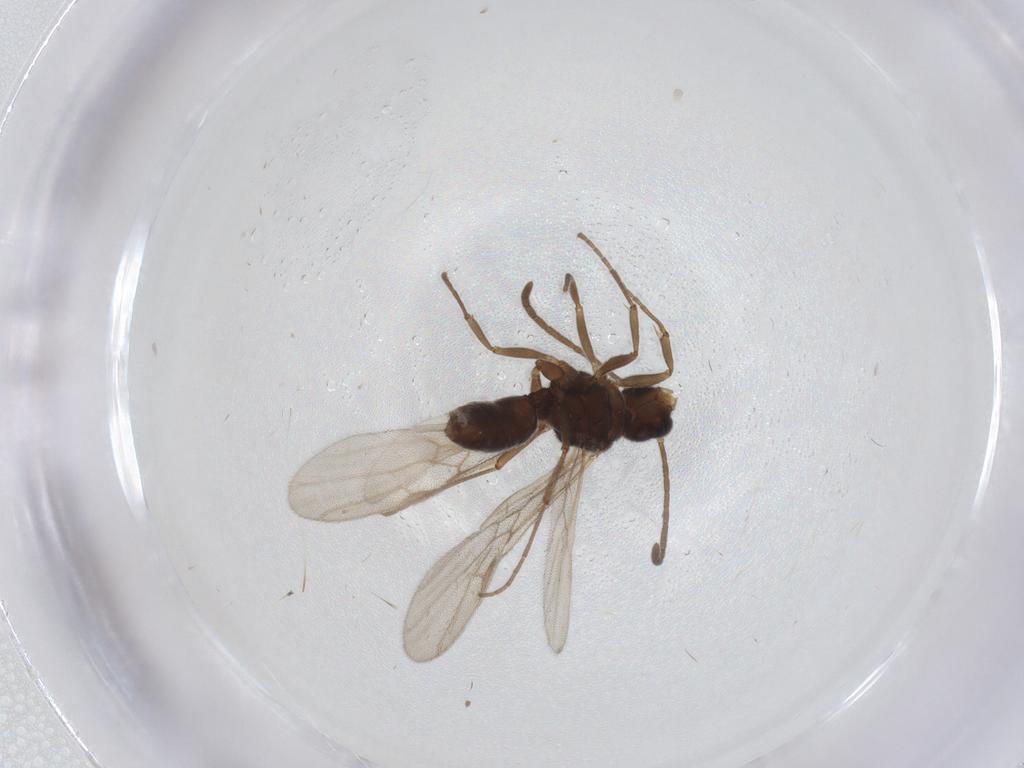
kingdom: Animalia
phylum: Arthropoda
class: Insecta
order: Hymenoptera
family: Formicidae
